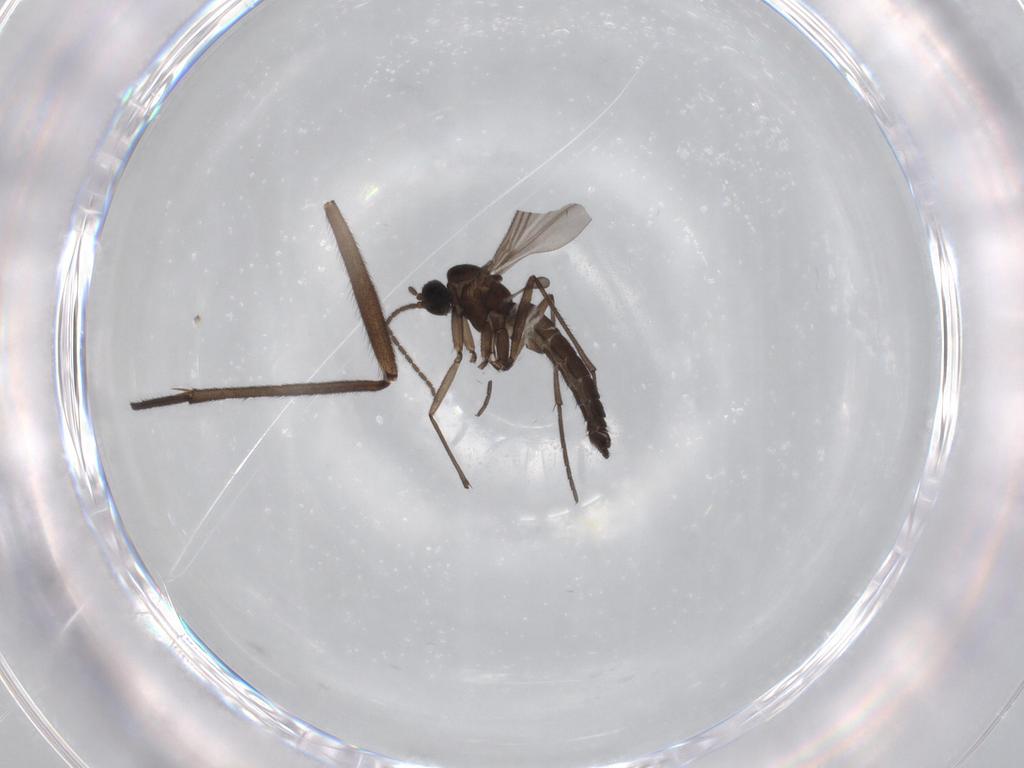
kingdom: Animalia
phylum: Arthropoda
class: Insecta
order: Diptera
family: Sciaridae
